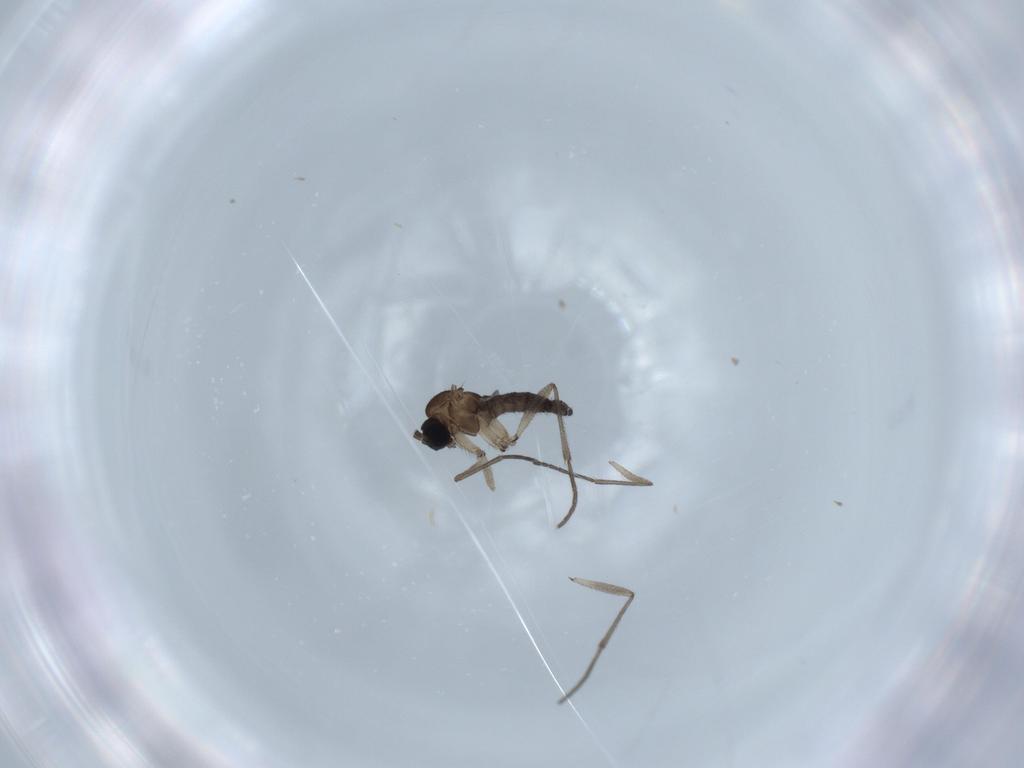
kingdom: Animalia
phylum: Arthropoda
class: Insecta
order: Diptera
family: Sciaridae
